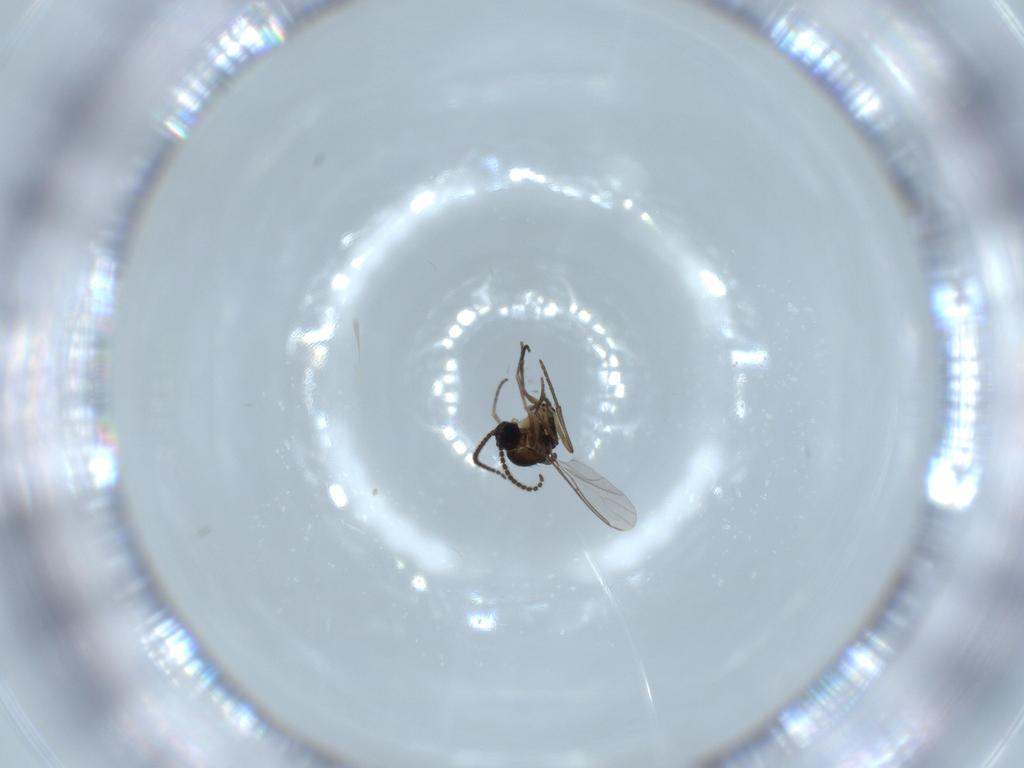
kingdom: Animalia
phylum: Arthropoda
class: Insecta
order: Diptera
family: Sciaridae
